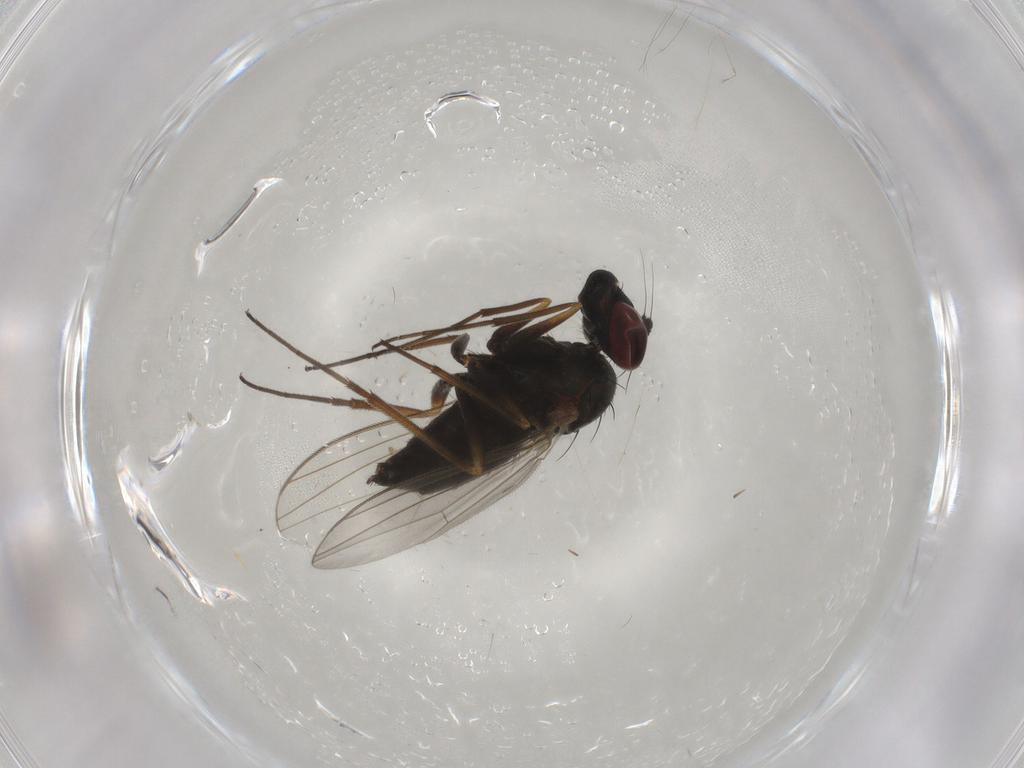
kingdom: Animalia
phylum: Arthropoda
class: Insecta
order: Diptera
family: Dolichopodidae
